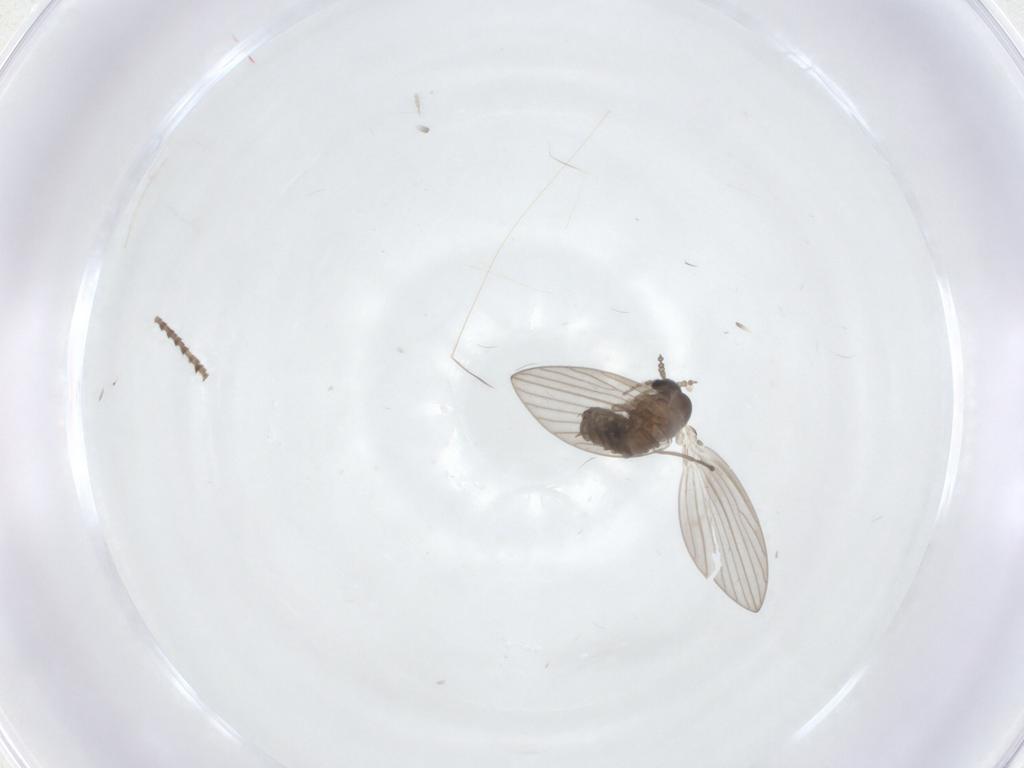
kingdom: Animalia
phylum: Arthropoda
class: Insecta
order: Diptera
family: Psychodidae
